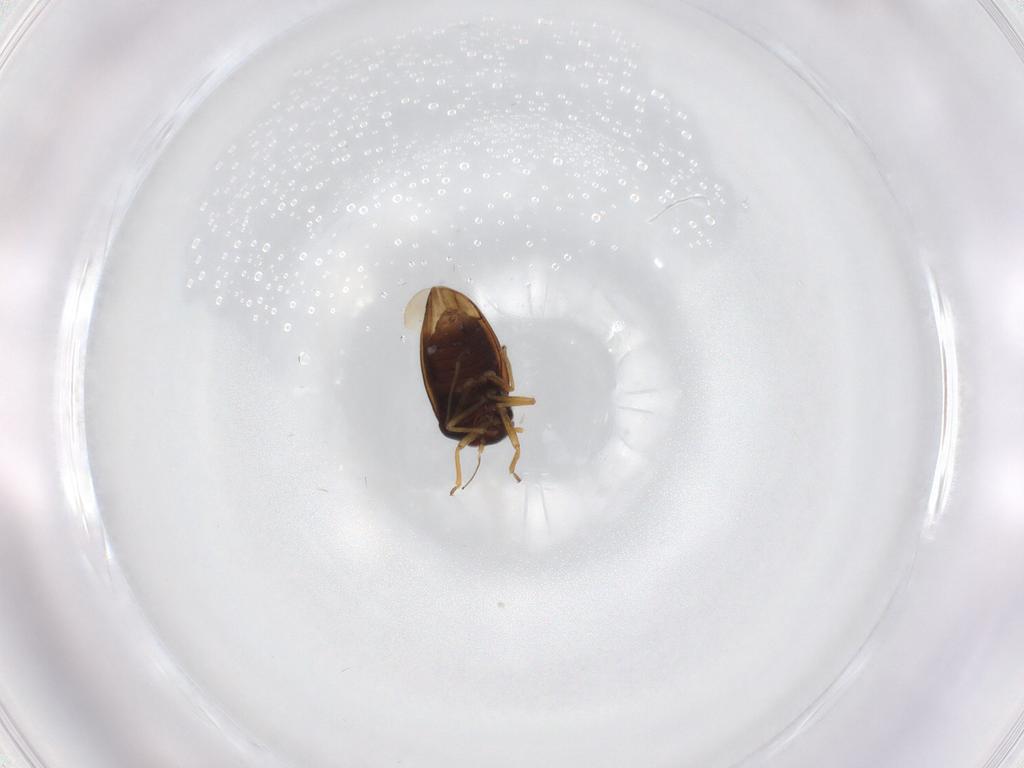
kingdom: Animalia
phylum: Arthropoda
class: Insecta
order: Hemiptera
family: Schizopteridae
